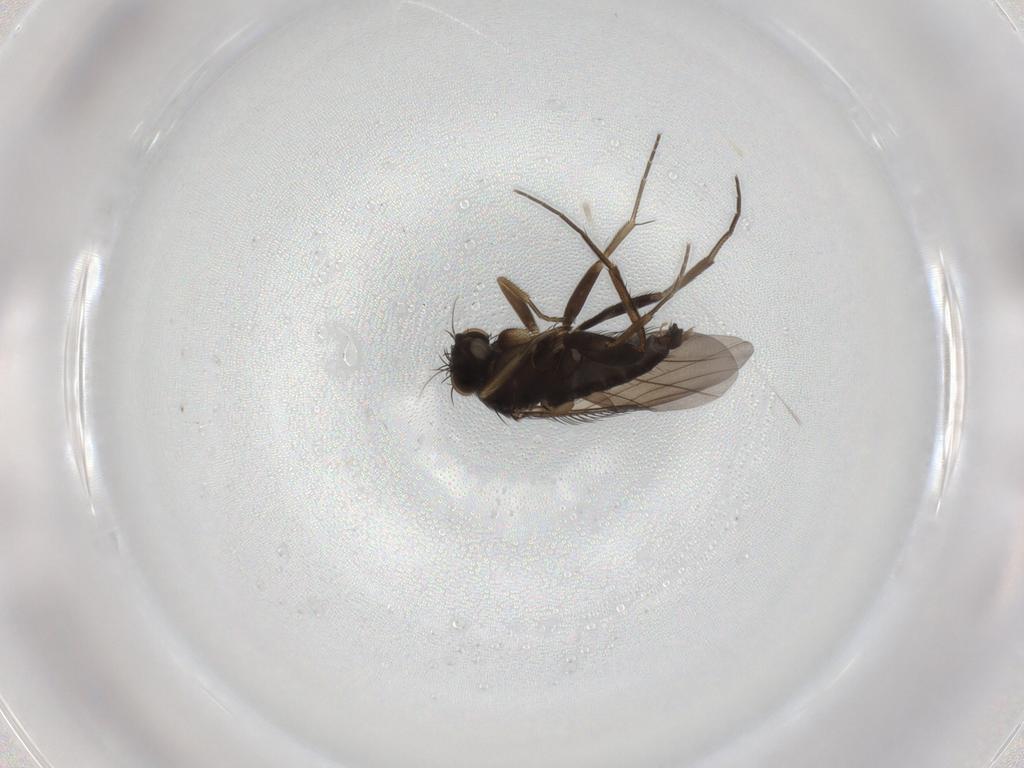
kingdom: Animalia
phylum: Arthropoda
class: Insecta
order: Diptera
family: Phoridae
